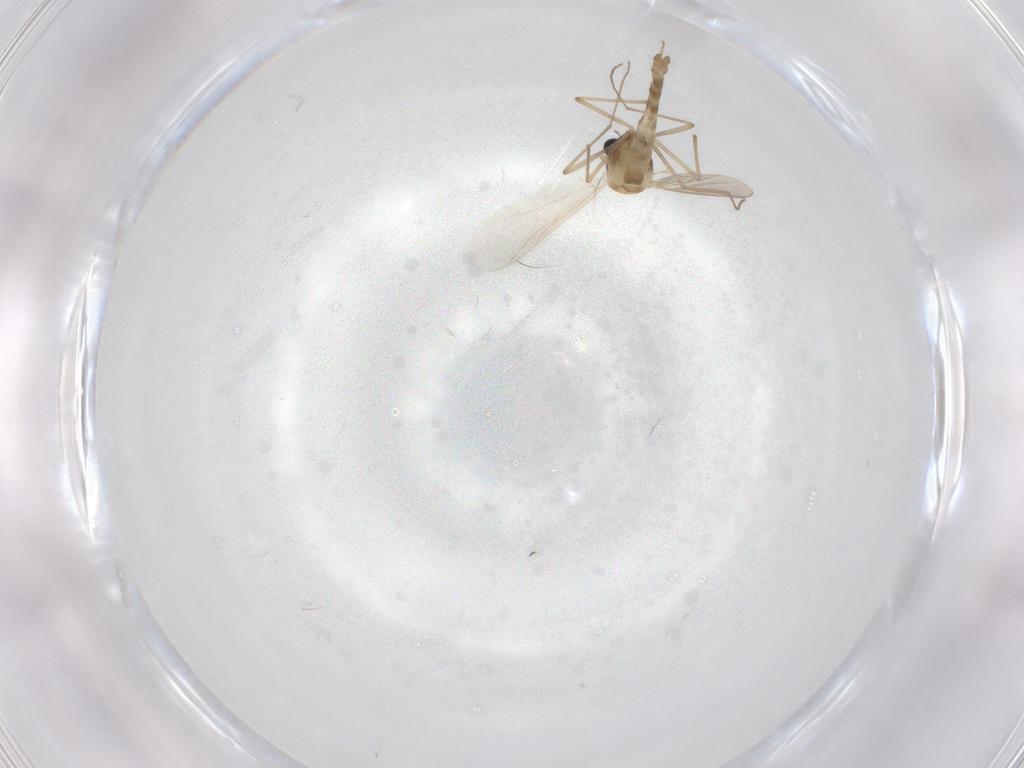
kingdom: Animalia
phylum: Arthropoda
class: Insecta
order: Diptera
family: Chironomidae
